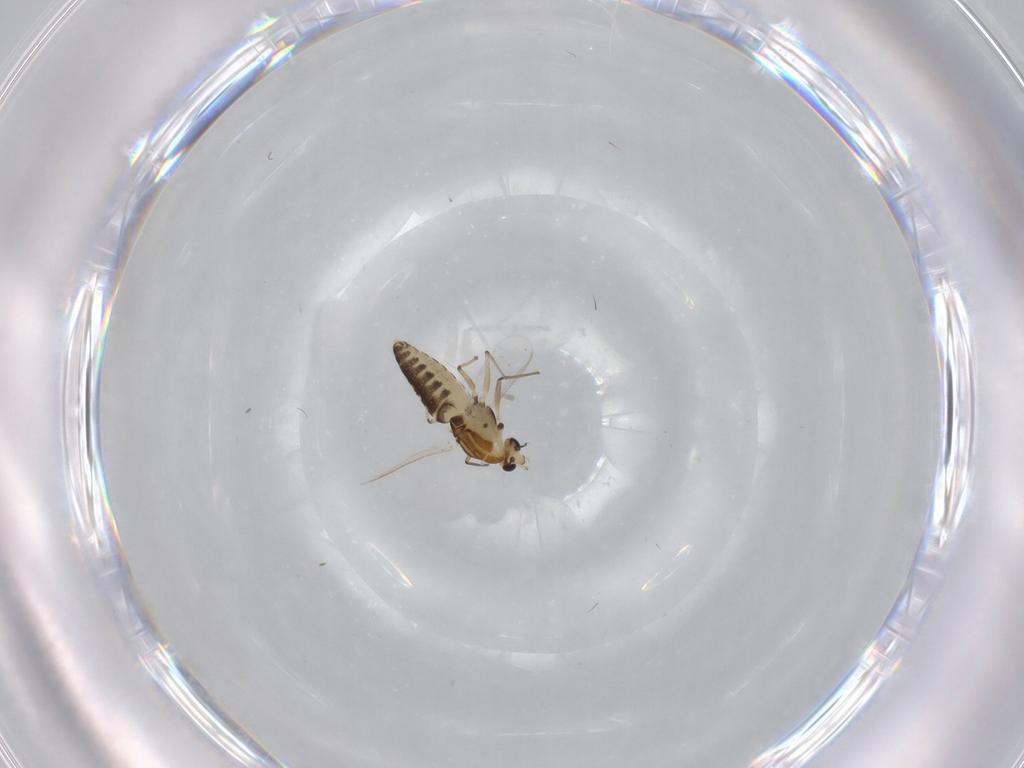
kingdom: Animalia
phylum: Arthropoda
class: Insecta
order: Diptera
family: Chironomidae
